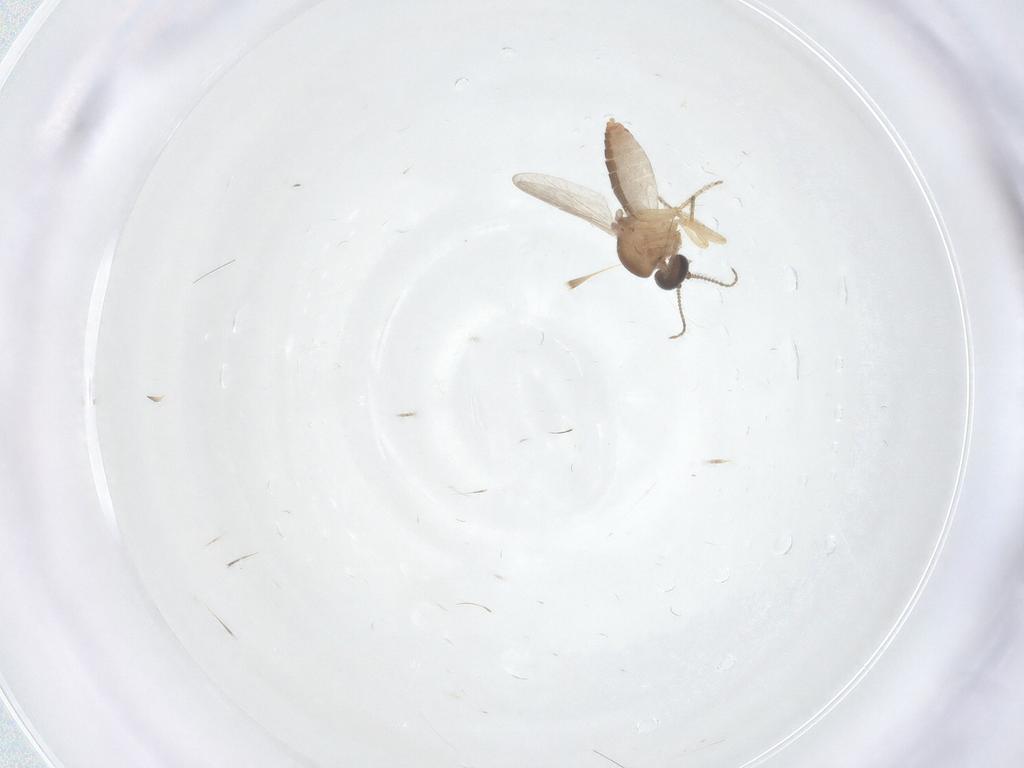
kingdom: Animalia
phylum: Arthropoda
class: Insecta
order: Diptera
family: Ceratopogonidae
